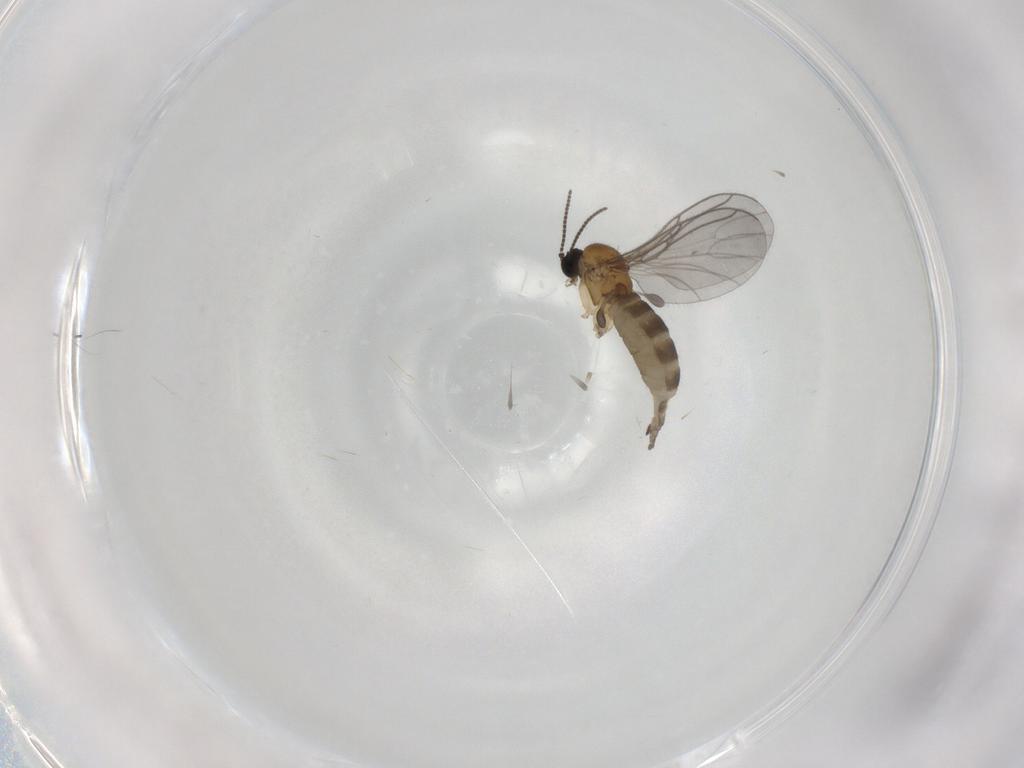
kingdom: Animalia
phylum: Arthropoda
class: Insecta
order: Diptera
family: Sciaridae
